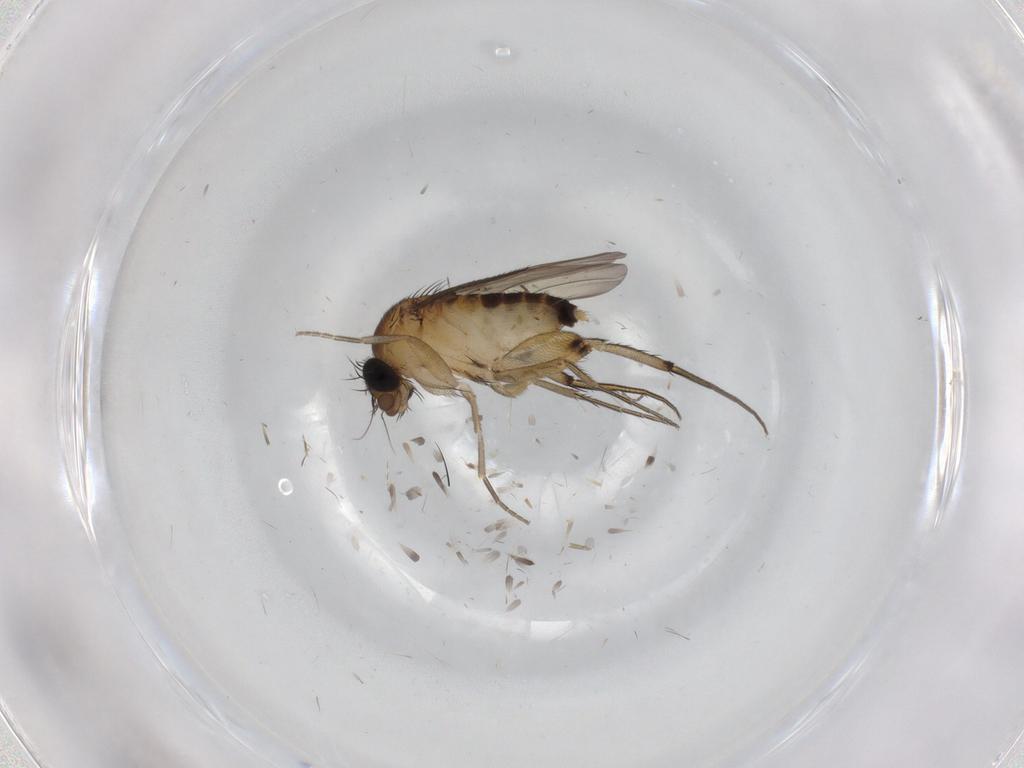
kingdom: Animalia
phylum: Arthropoda
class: Insecta
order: Diptera
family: Phoridae
